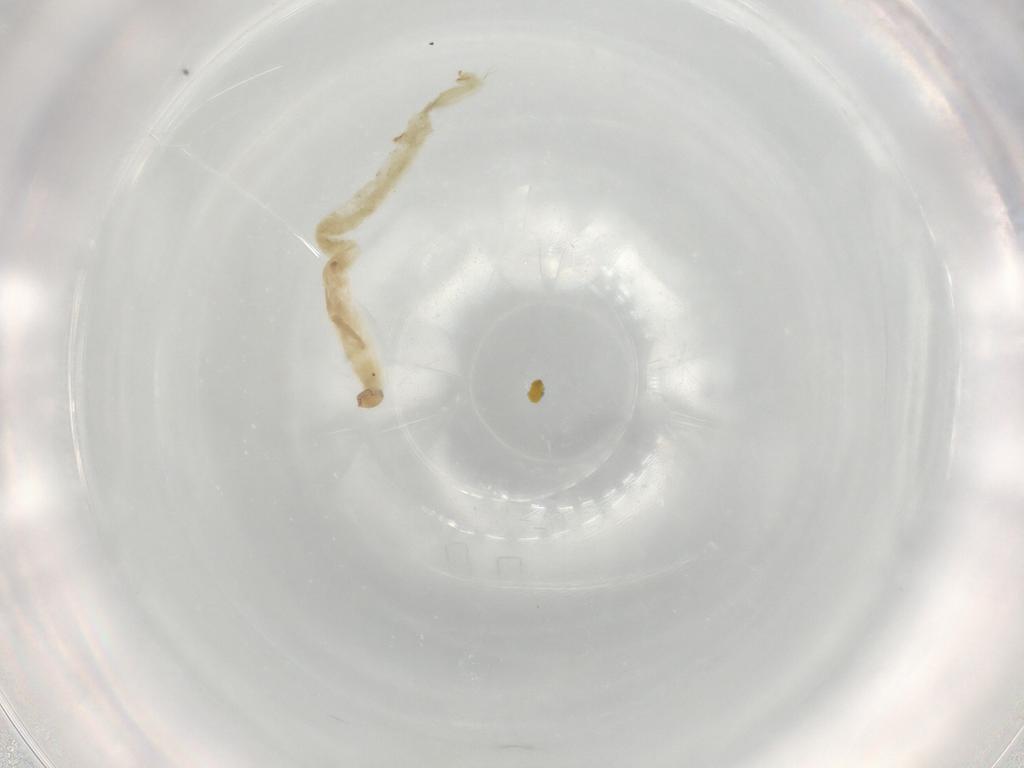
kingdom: Animalia
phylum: Arthropoda
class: Insecta
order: Diptera
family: Chironomidae
